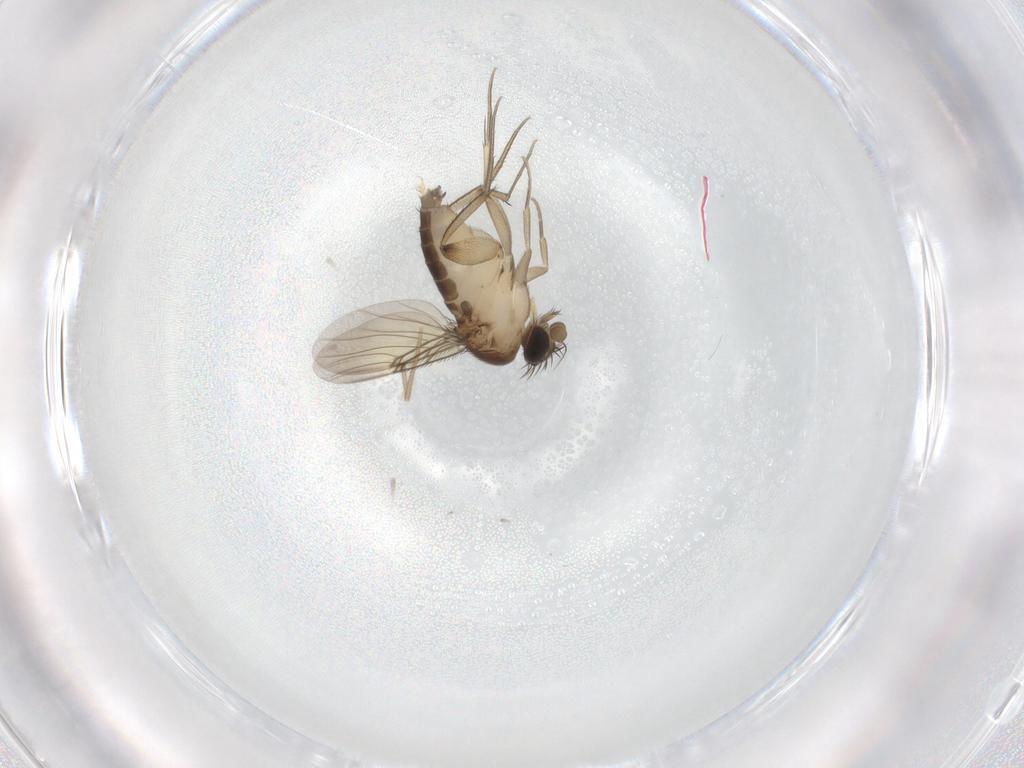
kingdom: Animalia
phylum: Arthropoda
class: Insecta
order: Diptera
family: Phoridae
